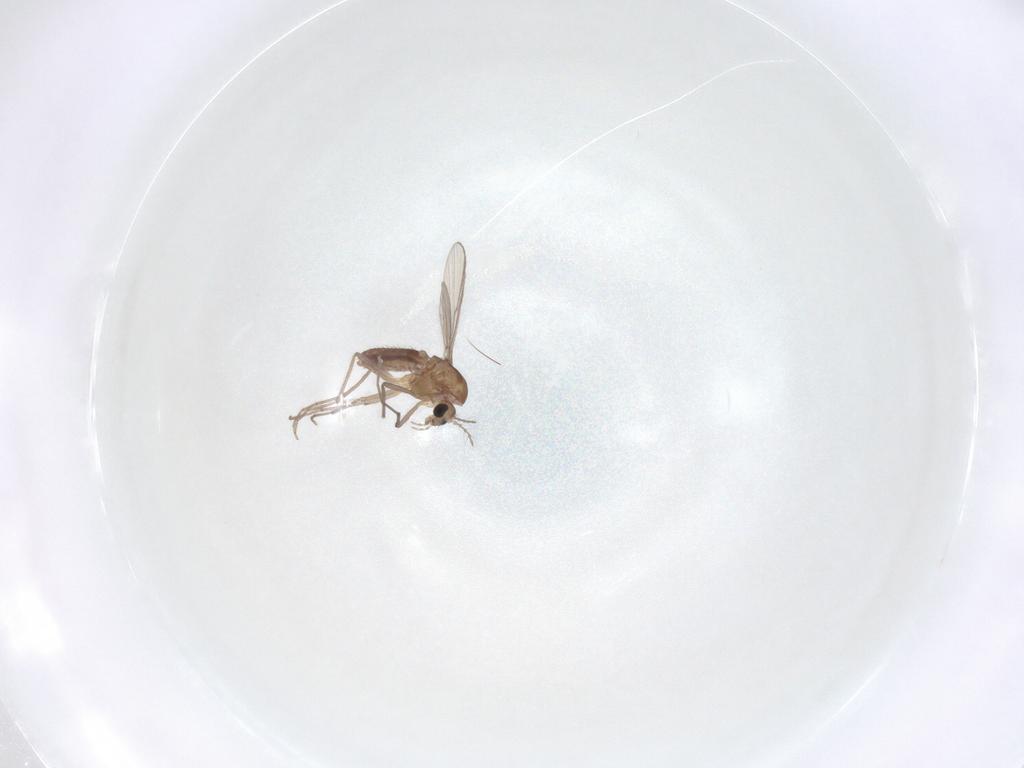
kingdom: Animalia
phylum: Arthropoda
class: Insecta
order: Diptera
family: Chironomidae
